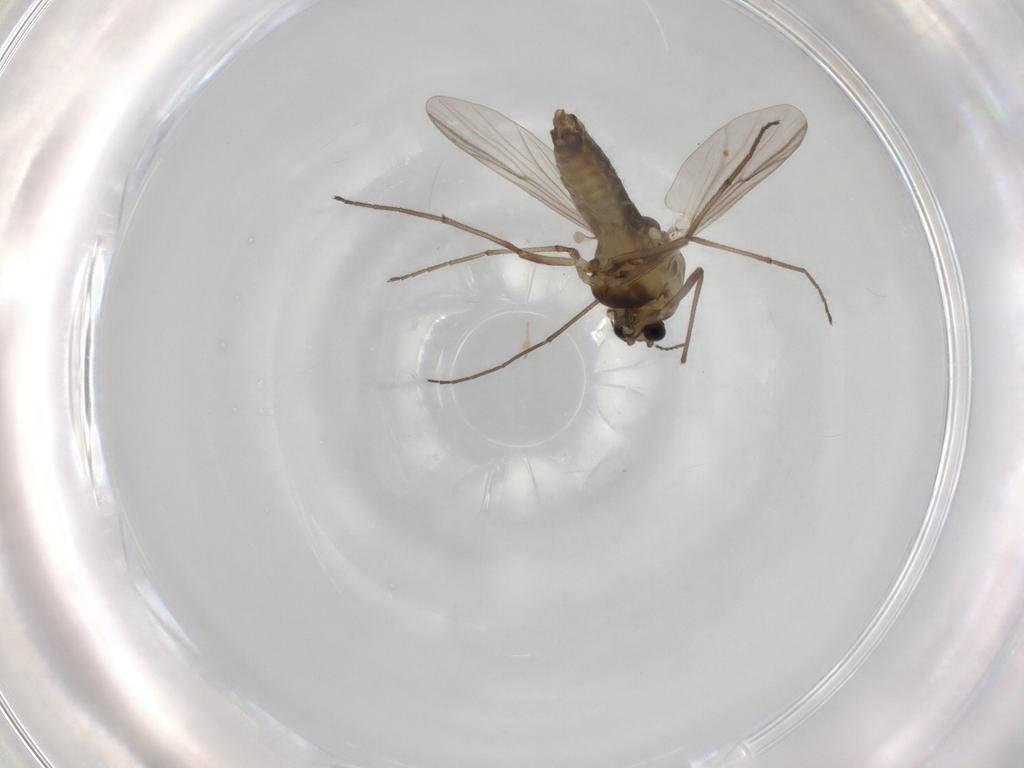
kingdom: Animalia
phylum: Arthropoda
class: Insecta
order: Diptera
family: Chironomidae
